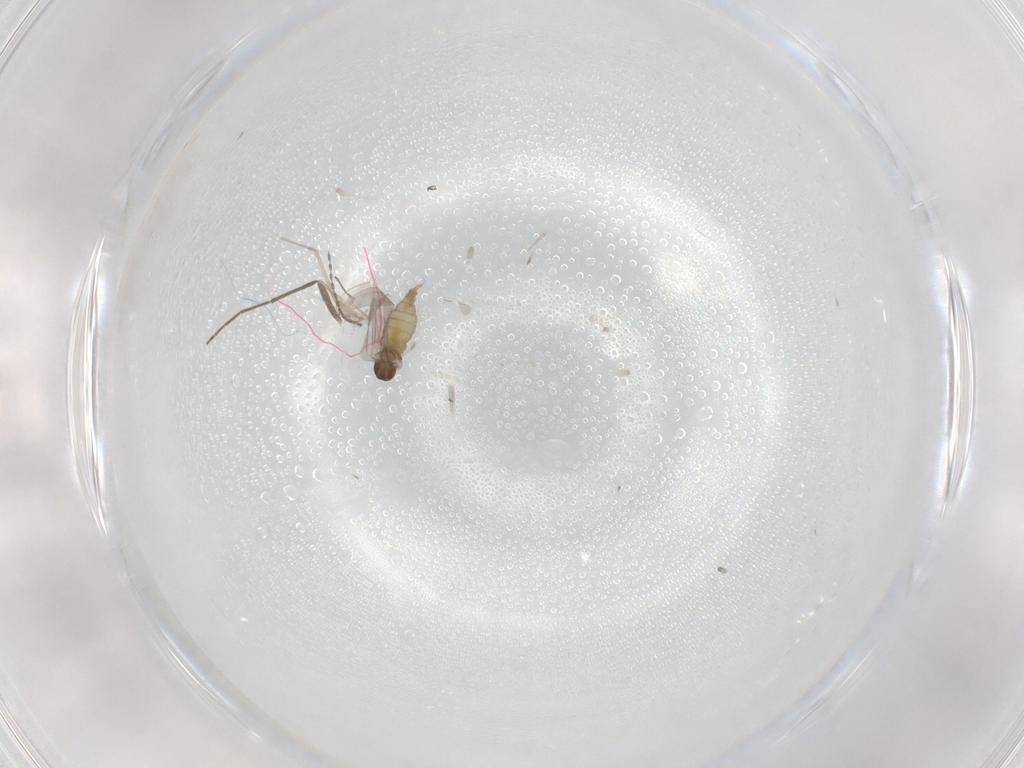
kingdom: Animalia
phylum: Arthropoda
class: Insecta
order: Diptera
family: Cecidomyiidae
